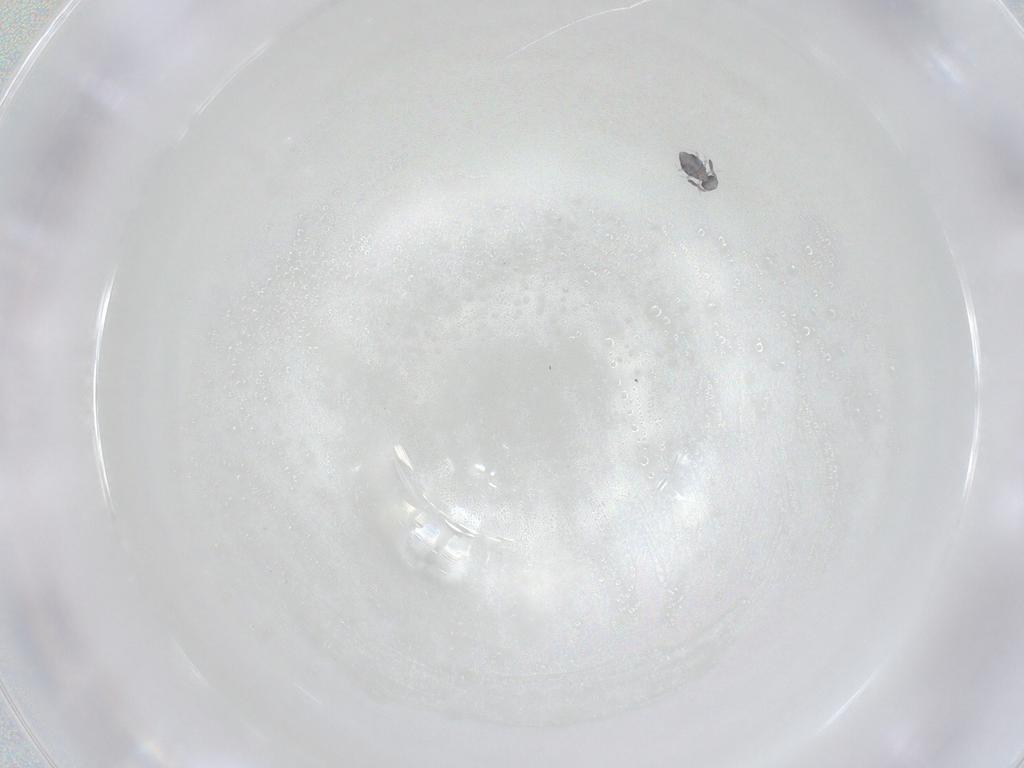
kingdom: Animalia
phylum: Arthropoda
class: Collembola
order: Symphypleona
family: Katiannidae
